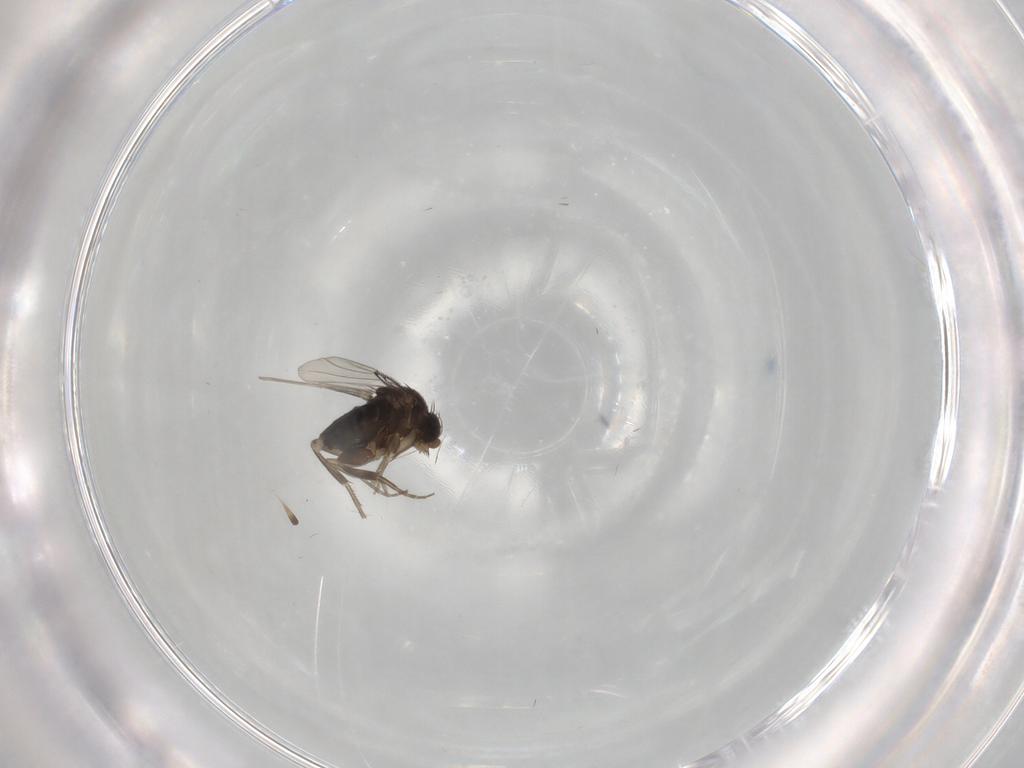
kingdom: Animalia
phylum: Arthropoda
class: Insecta
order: Diptera
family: Phoridae
